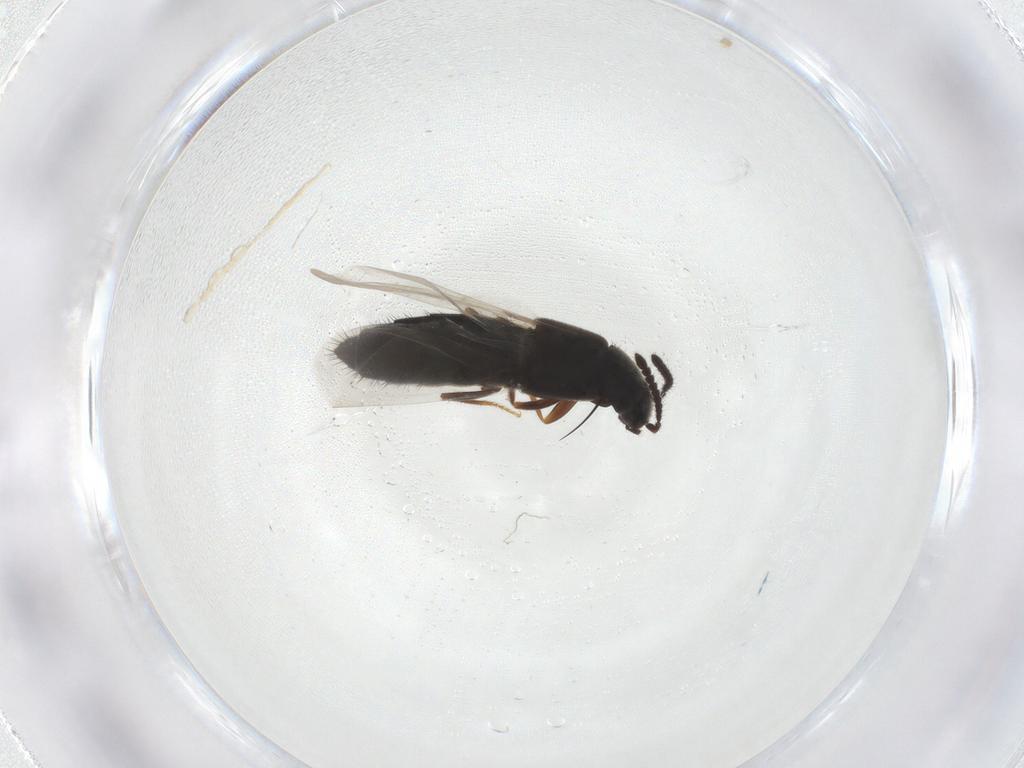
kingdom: Animalia
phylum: Arthropoda
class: Insecta
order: Coleoptera
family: Staphylinidae
